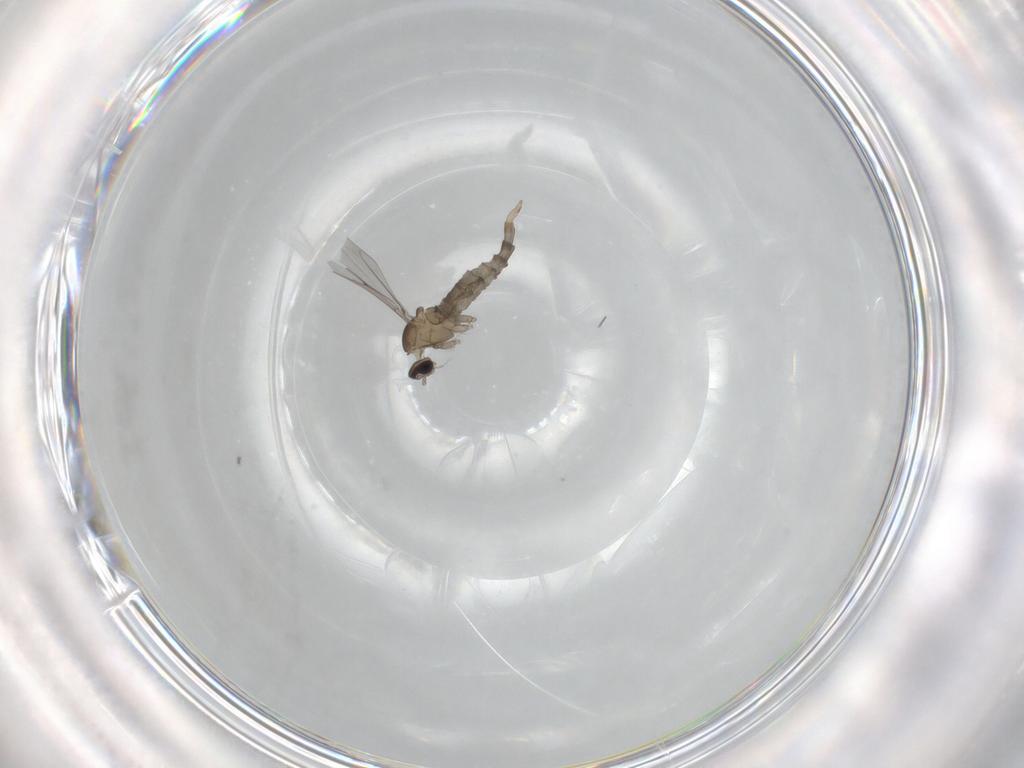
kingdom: Animalia
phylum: Arthropoda
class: Insecta
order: Diptera
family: Cecidomyiidae
